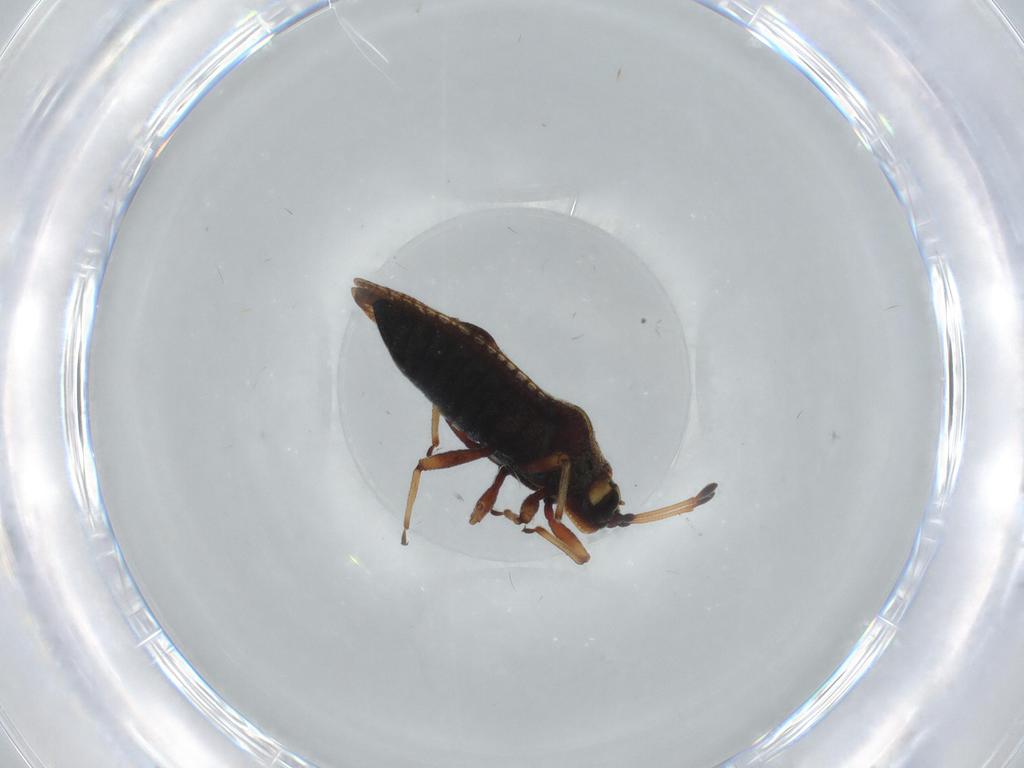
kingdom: Animalia
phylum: Arthropoda
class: Insecta
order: Hemiptera
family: Tingidae
